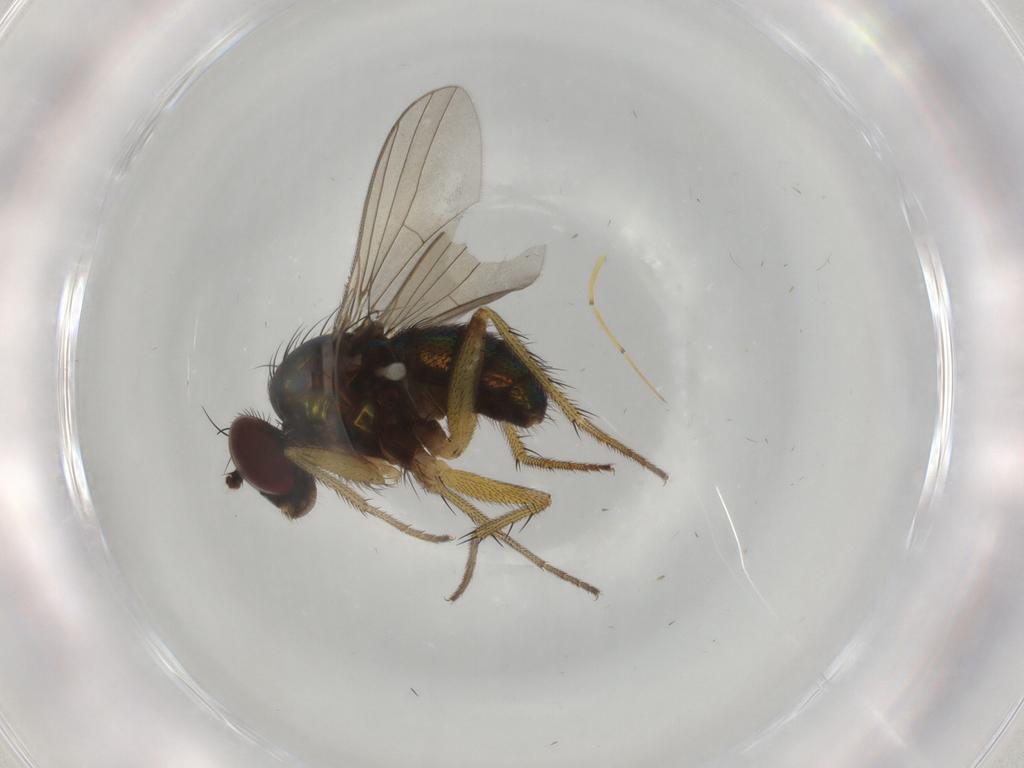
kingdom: Animalia
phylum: Arthropoda
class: Insecta
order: Diptera
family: Dolichopodidae
